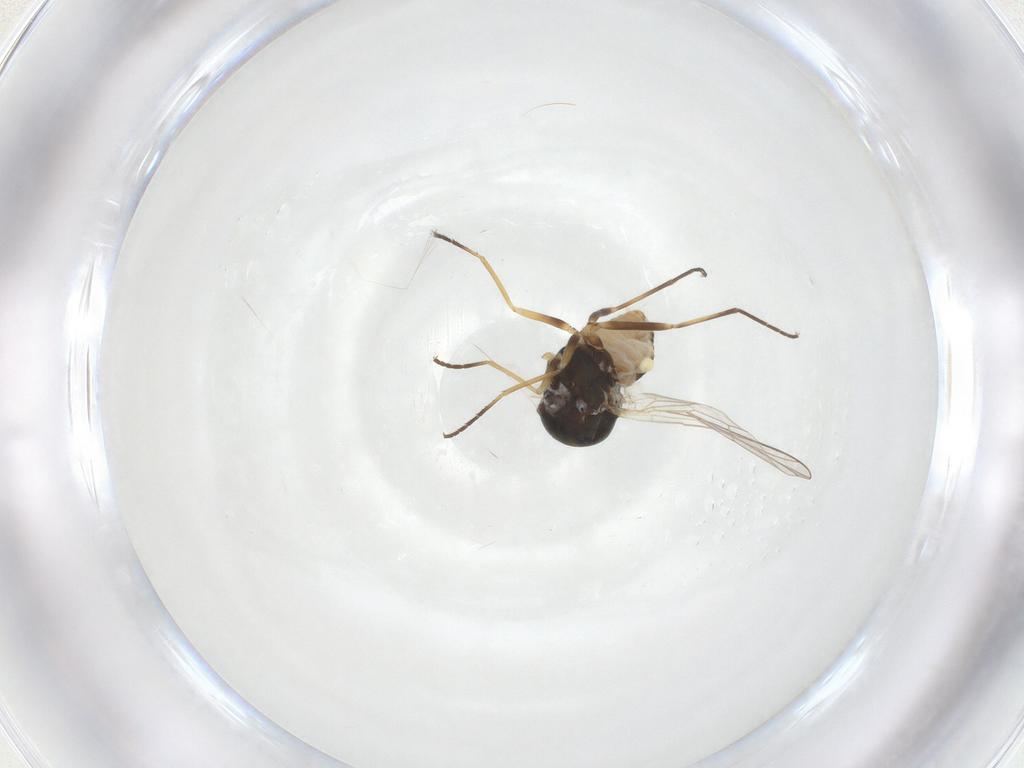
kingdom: Animalia
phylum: Arthropoda
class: Insecta
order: Diptera
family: Bombyliidae
